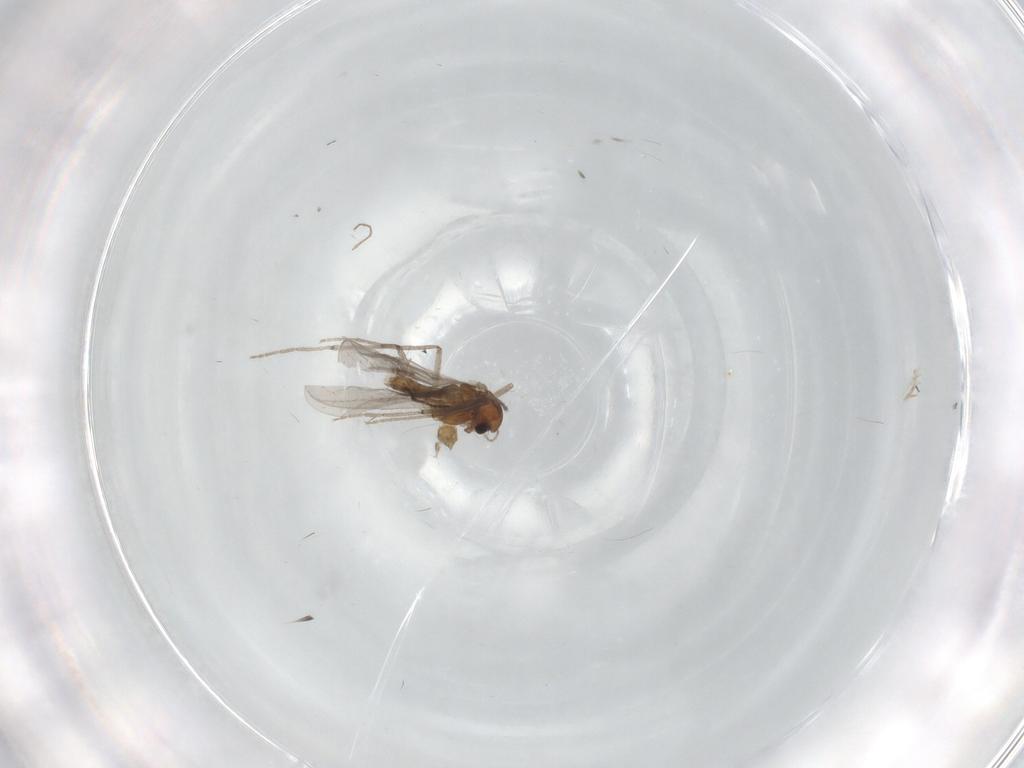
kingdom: Animalia
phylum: Arthropoda
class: Insecta
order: Diptera
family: Chironomidae
